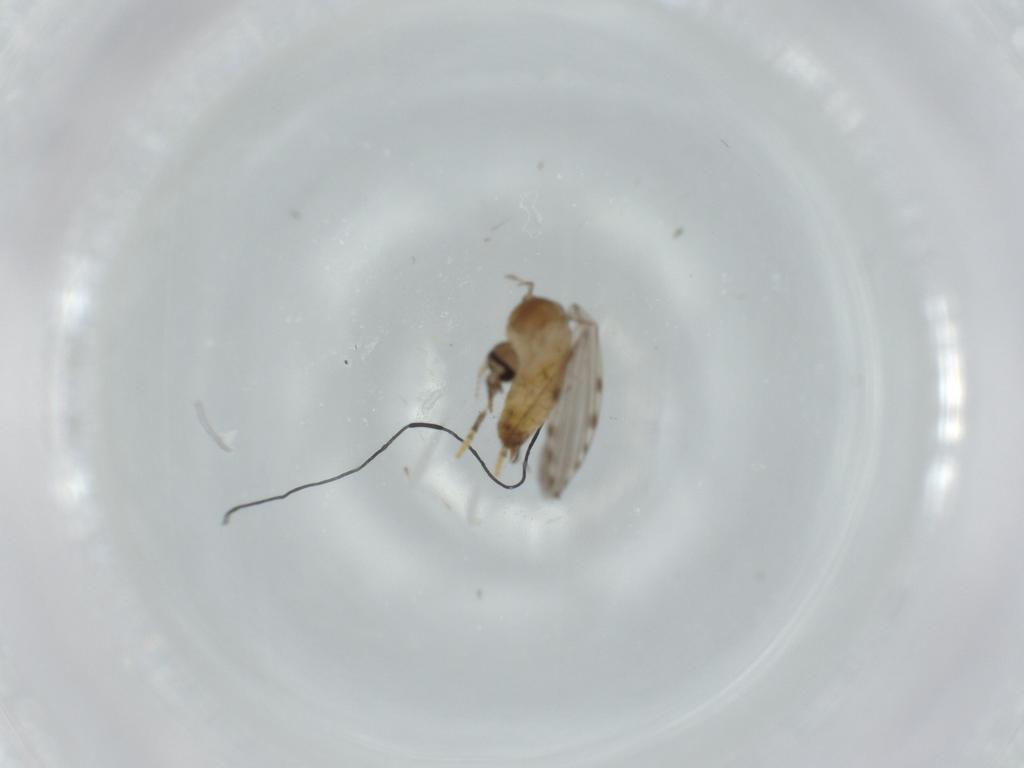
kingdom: Animalia
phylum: Arthropoda
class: Insecta
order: Diptera
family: Psychodidae
